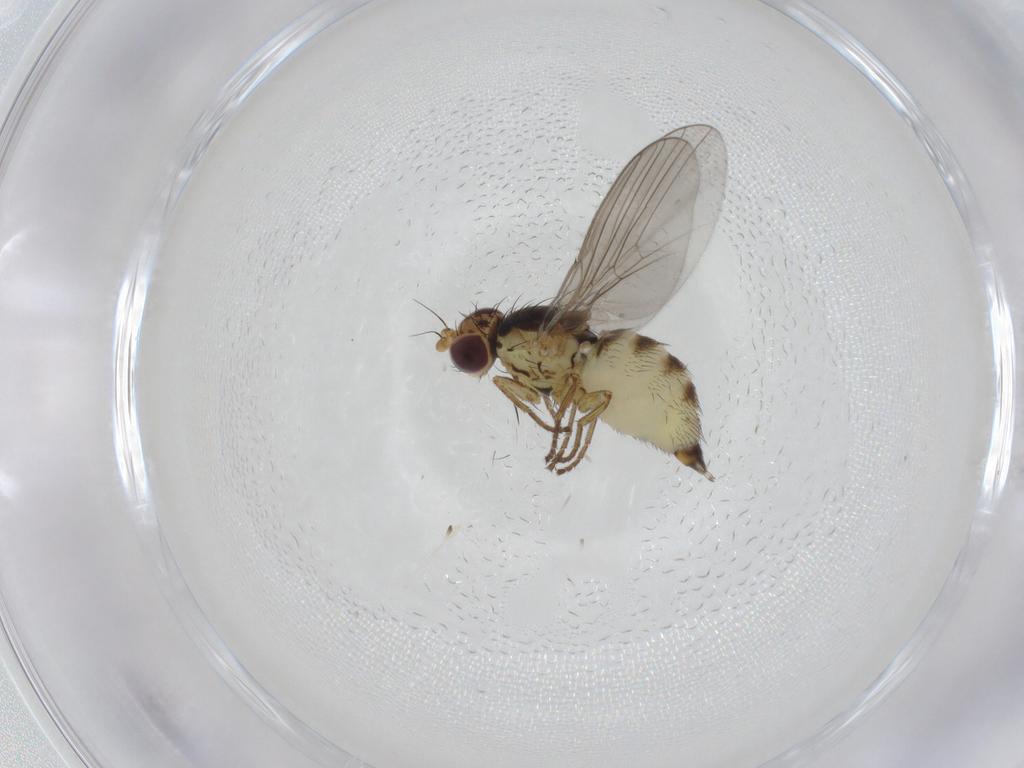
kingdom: Animalia
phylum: Arthropoda
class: Insecta
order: Diptera
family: Agromyzidae
